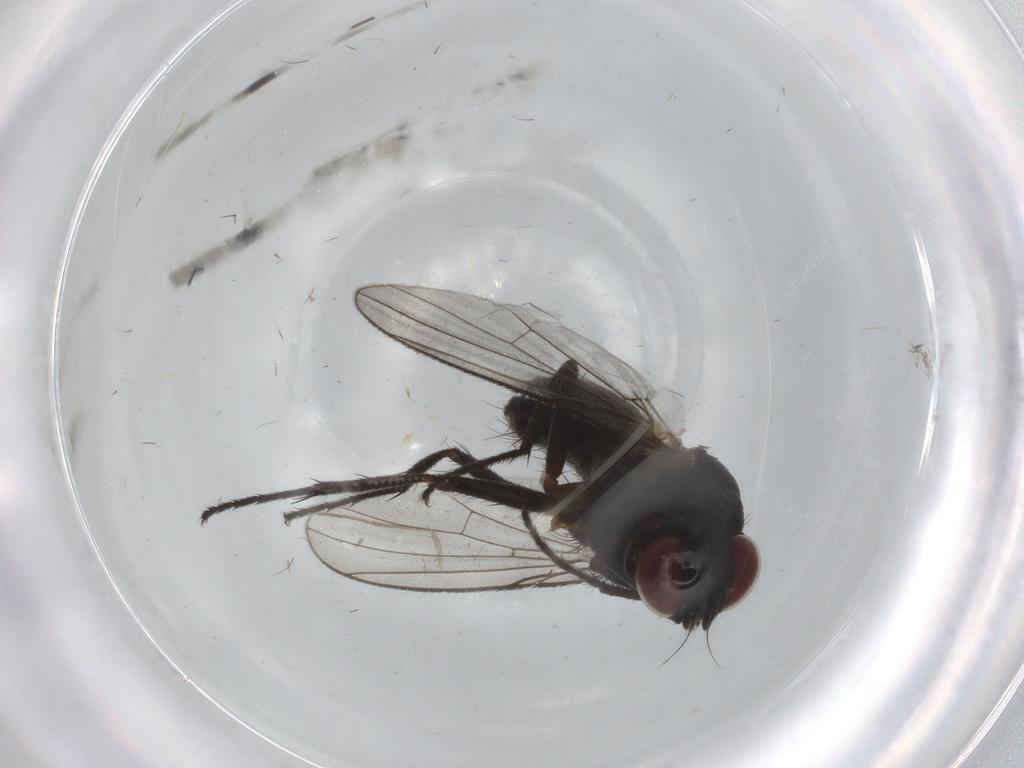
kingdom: Animalia
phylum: Arthropoda
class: Insecta
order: Diptera
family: Muscidae
